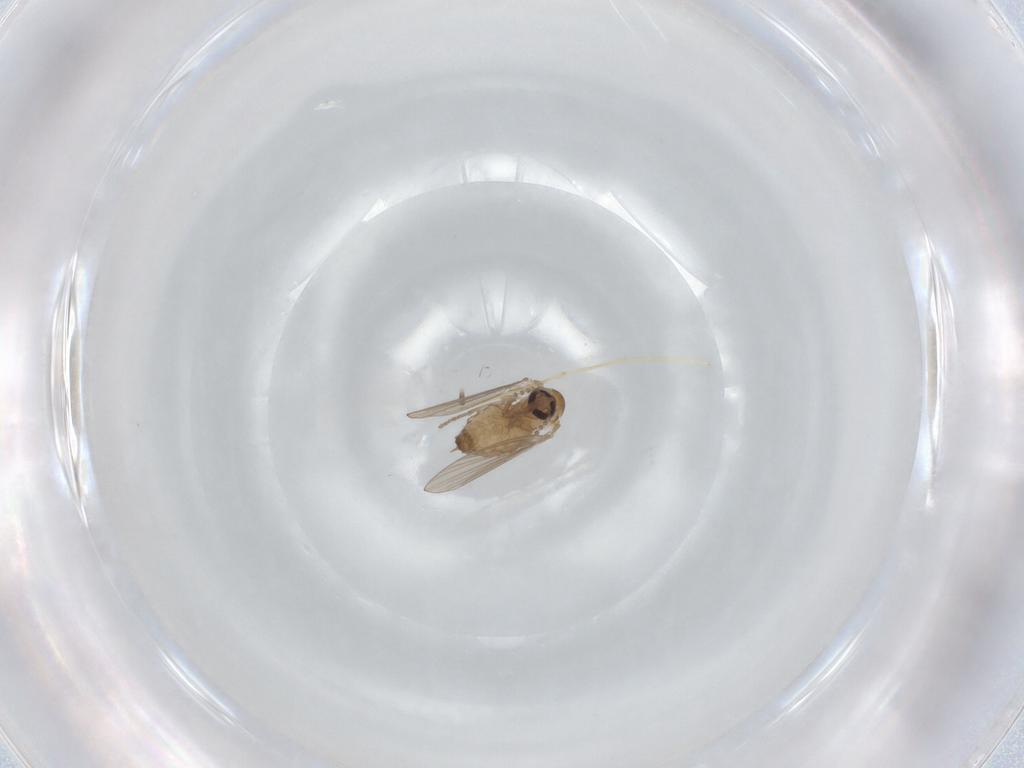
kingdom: Animalia
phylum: Arthropoda
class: Insecta
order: Diptera
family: Psychodidae
